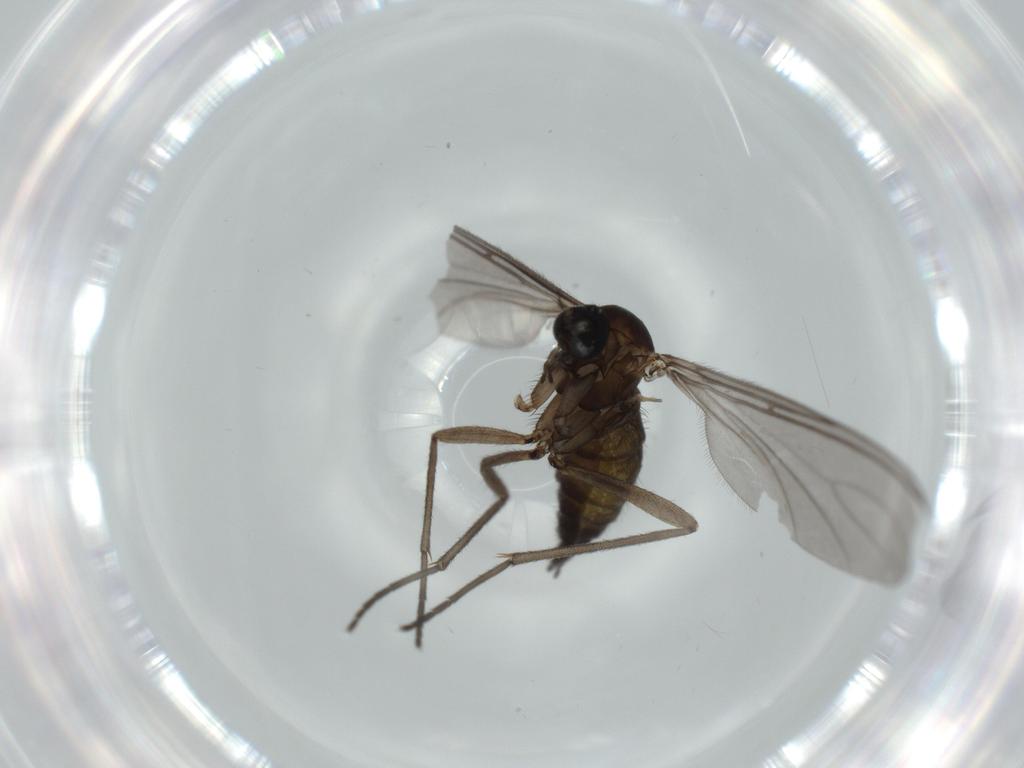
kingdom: Animalia
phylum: Arthropoda
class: Insecta
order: Diptera
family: Sciaridae
